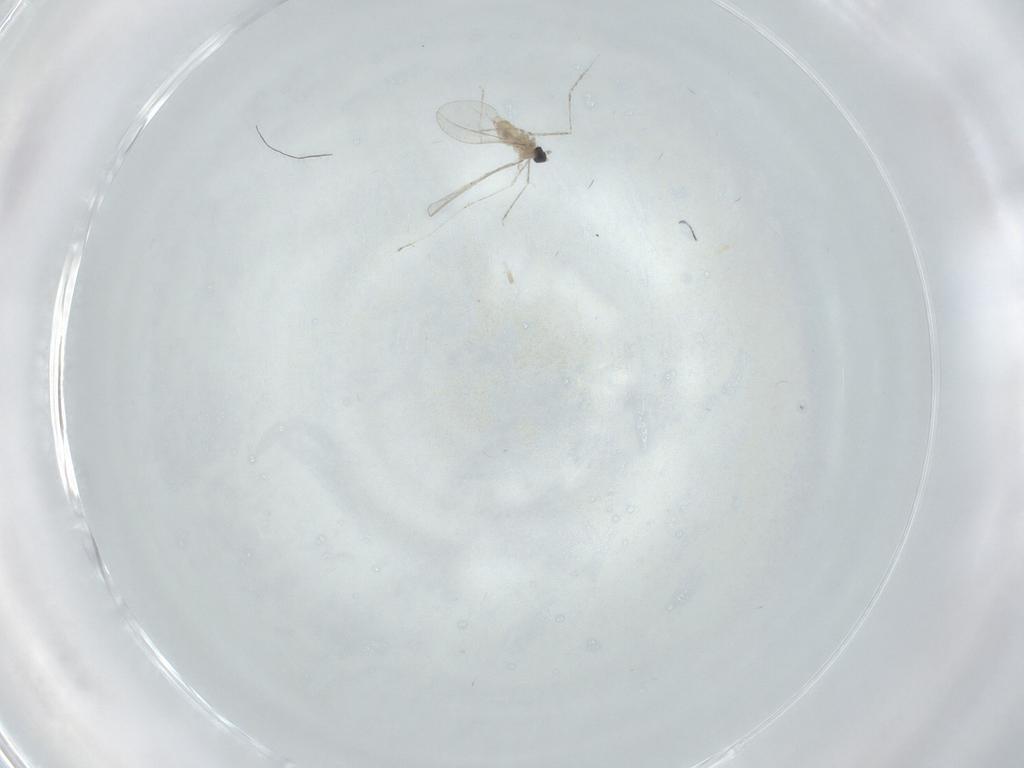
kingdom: Animalia
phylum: Arthropoda
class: Insecta
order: Diptera
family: Cecidomyiidae
